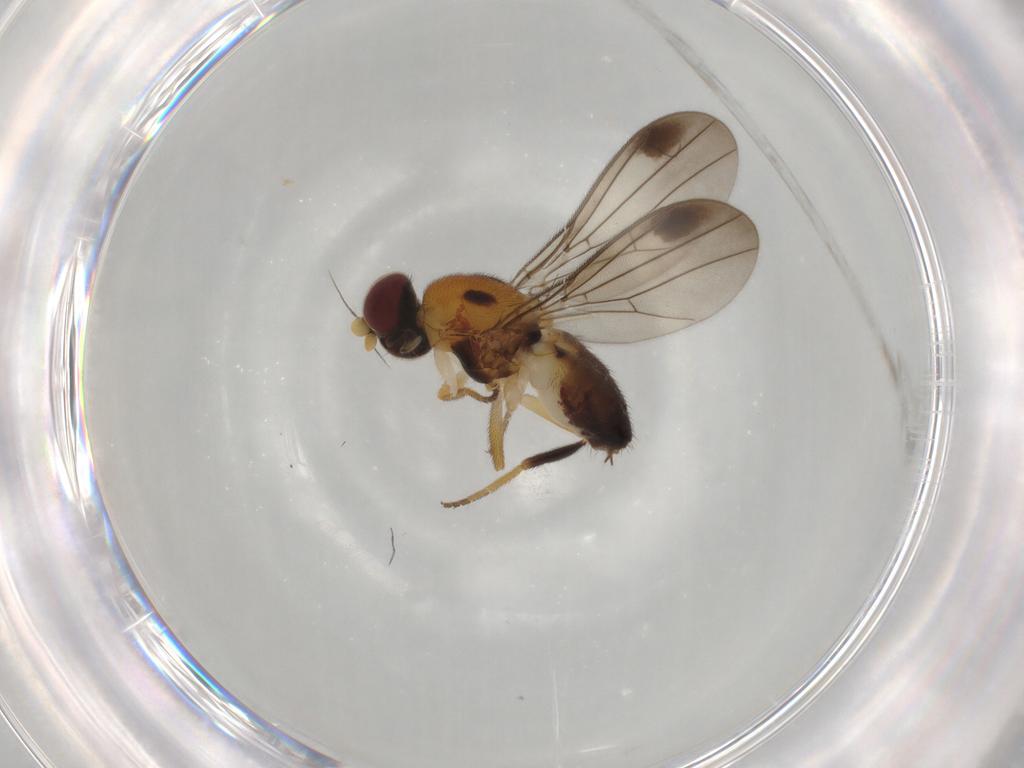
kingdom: Animalia
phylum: Arthropoda
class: Insecta
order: Diptera
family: Chloropidae
